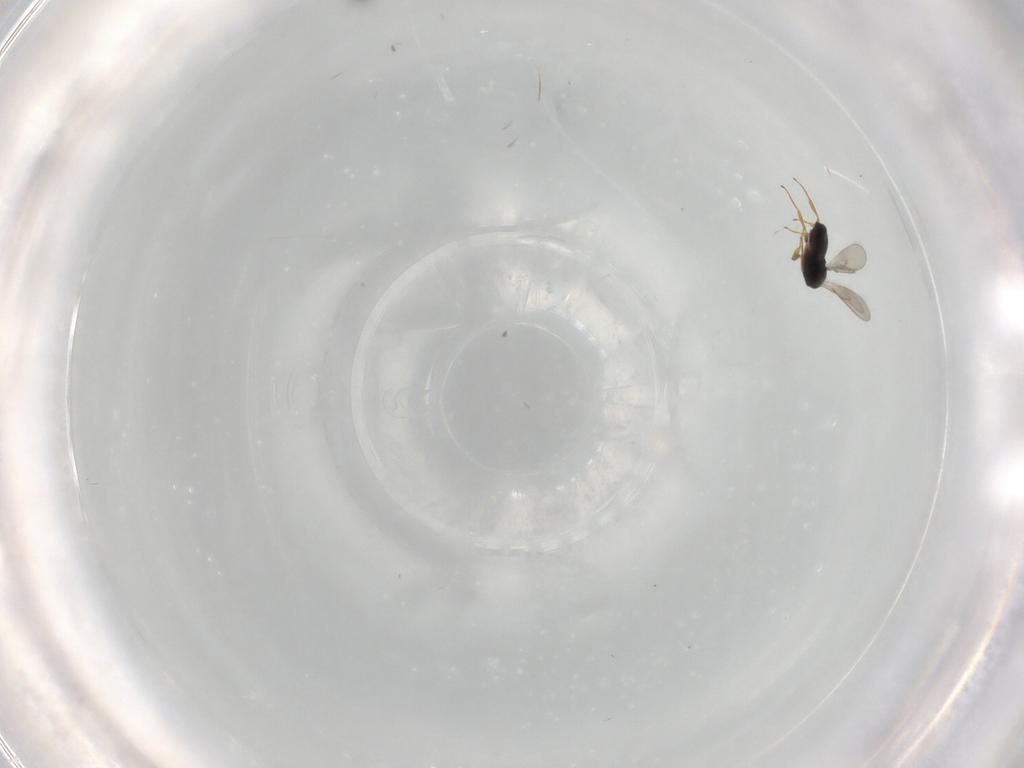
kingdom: Animalia
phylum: Arthropoda
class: Insecta
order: Hymenoptera
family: Scelionidae
